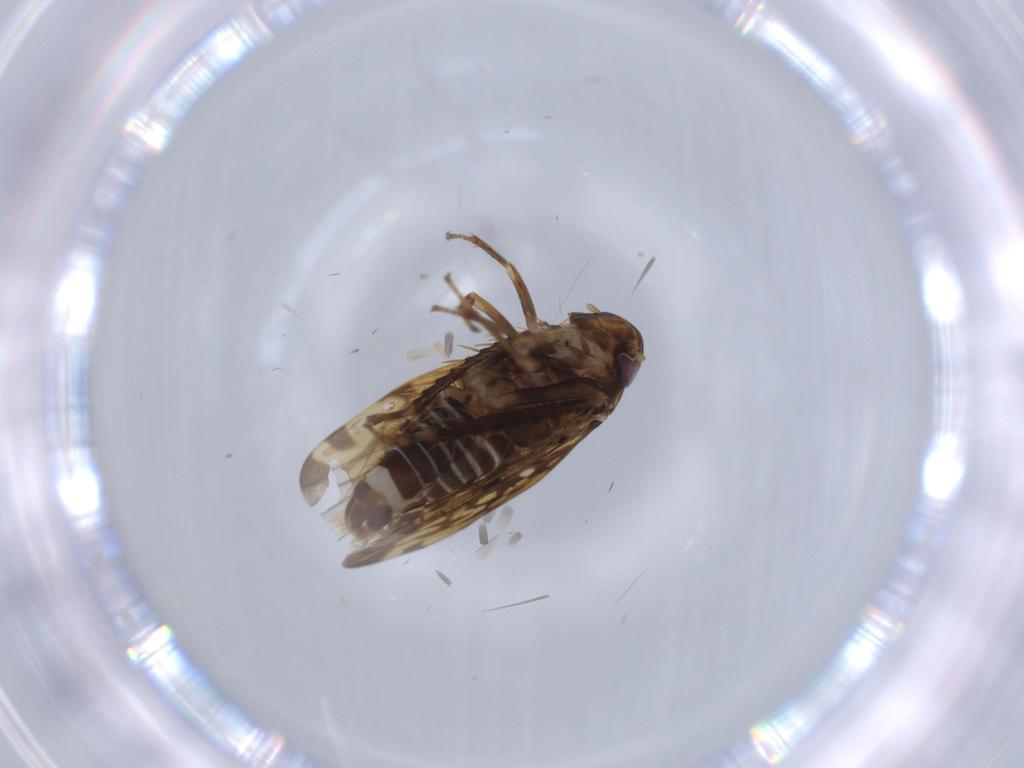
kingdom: Animalia
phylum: Arthropoda
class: Insecta
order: Hemiptera
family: Cicadellidae
